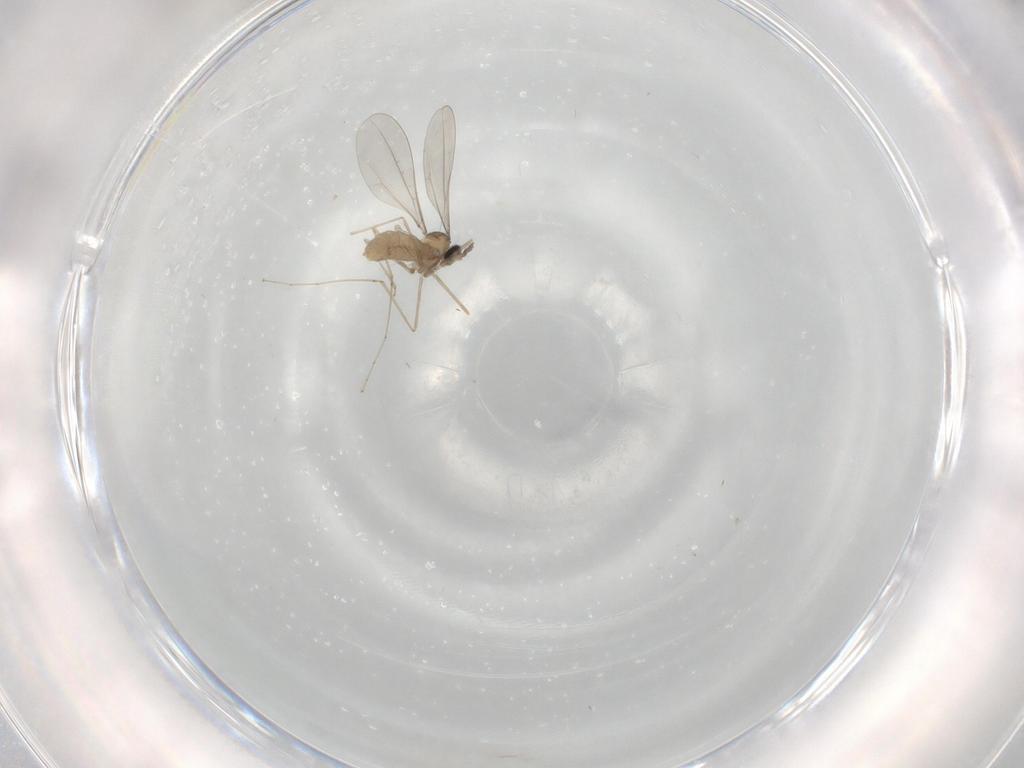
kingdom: Animalia
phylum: Arthropoda
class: Insecta
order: Diptera
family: Cecidomyiidae
